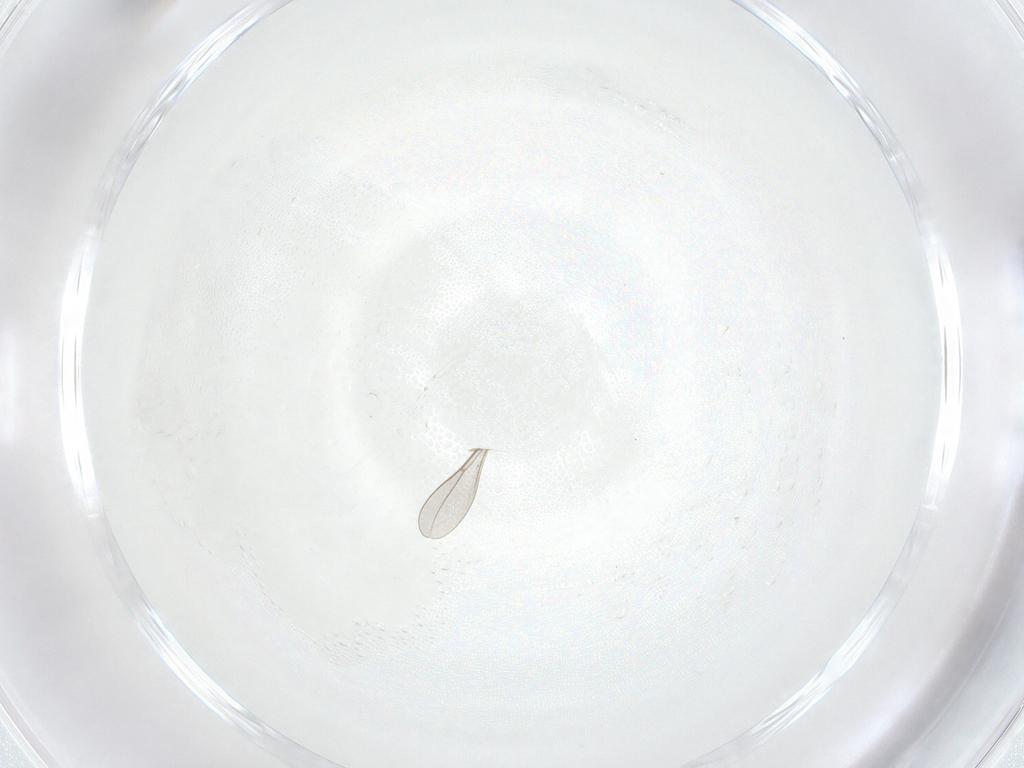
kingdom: Animalia
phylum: Arthropoda
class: Insecta
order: Diptera
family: Cecidomyiidae
